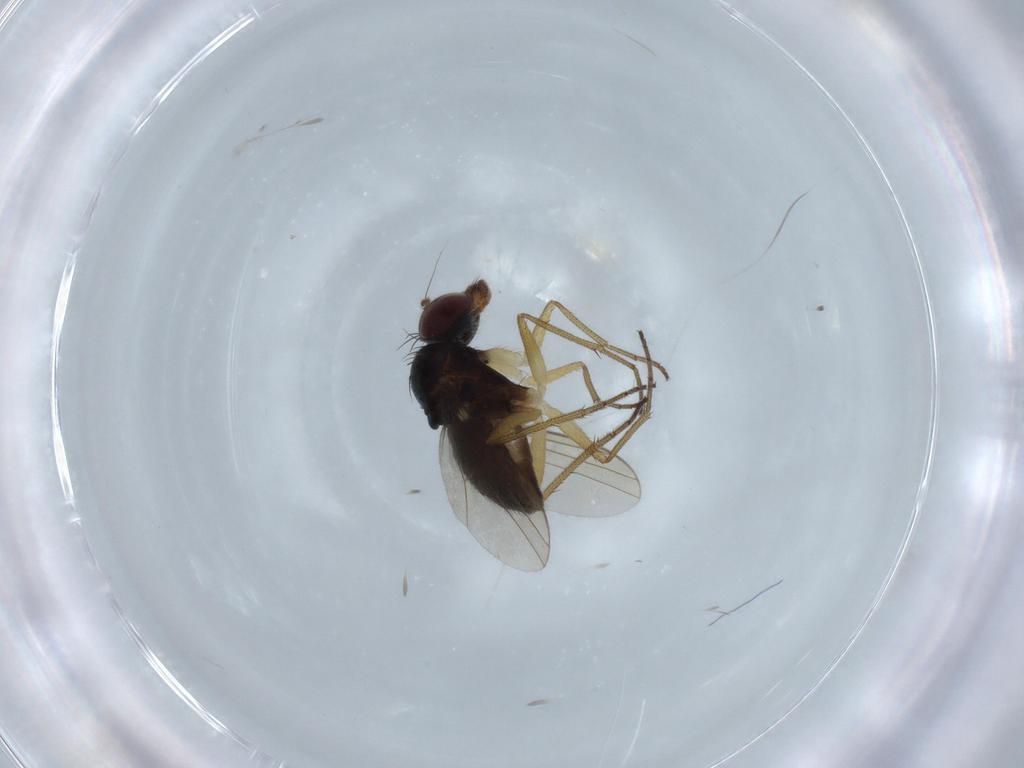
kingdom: Animalia
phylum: Arthropoda
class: Insecta
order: Diptera
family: Dolichopodidae
